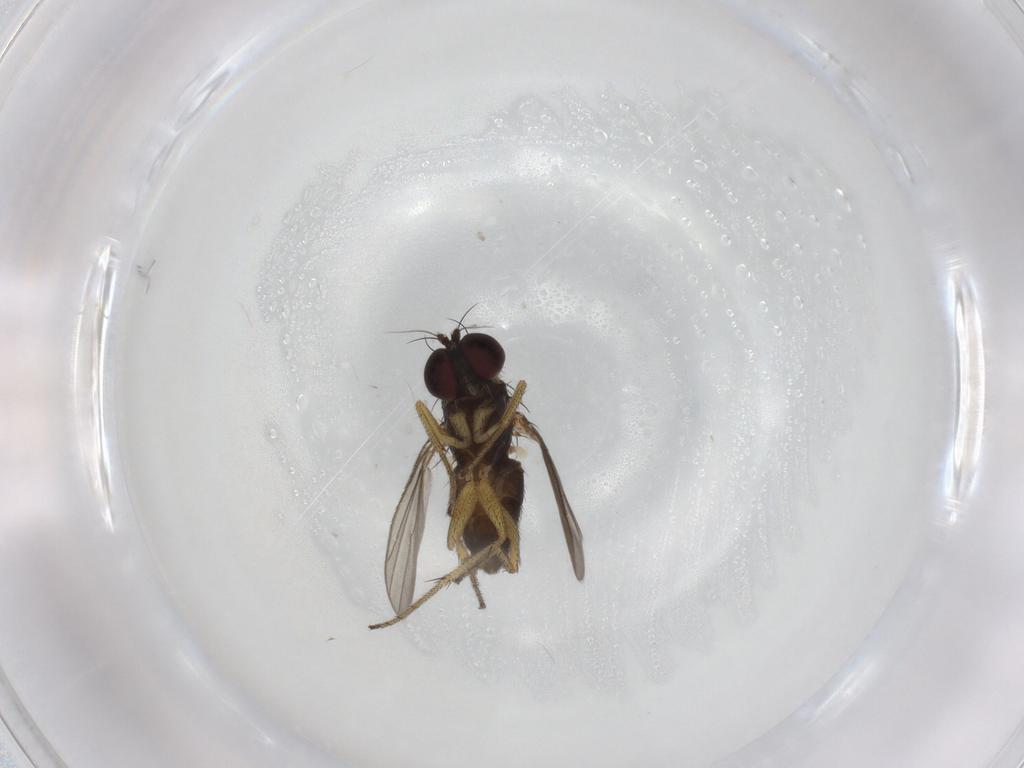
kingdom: Animalia
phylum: Arthropoda
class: Insecta
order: Diptera
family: Dolichopodidae
